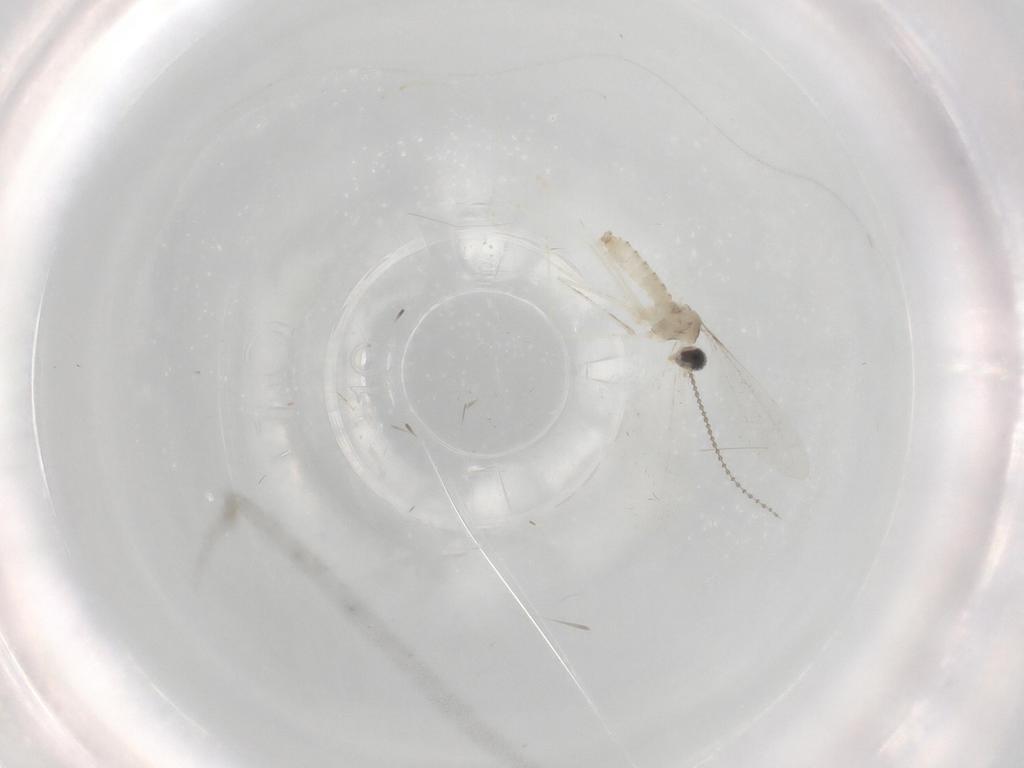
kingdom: Animalia
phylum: Arthropoda
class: Insecta
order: Diptera
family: Cecidomyiidae
